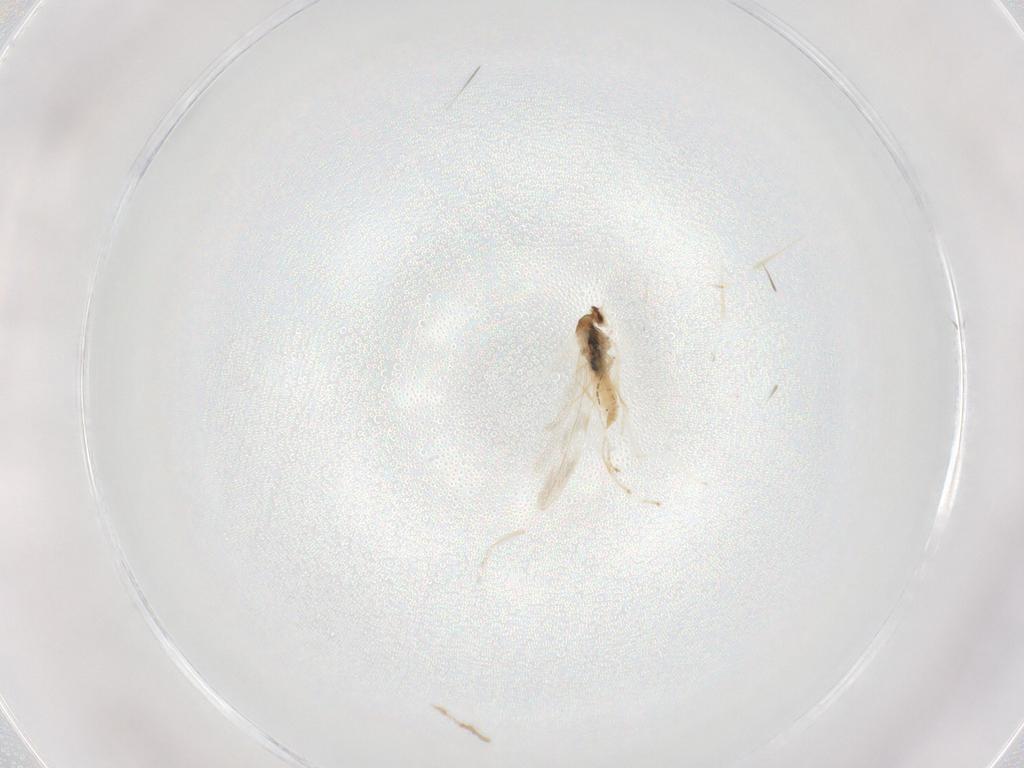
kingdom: Animalia
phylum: Arthropoda
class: Insecta
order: Diptera
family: Cecidomyiidae
